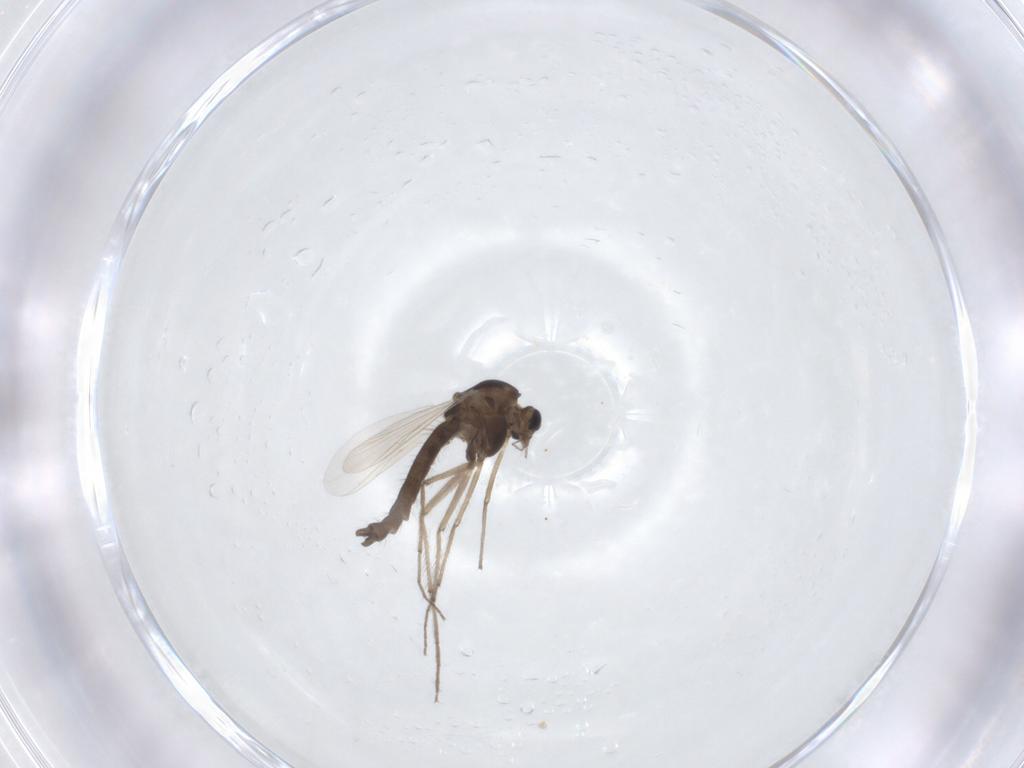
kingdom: Animalia
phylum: Arthropoda
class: Insecta
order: Diptera
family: Chironomidae
